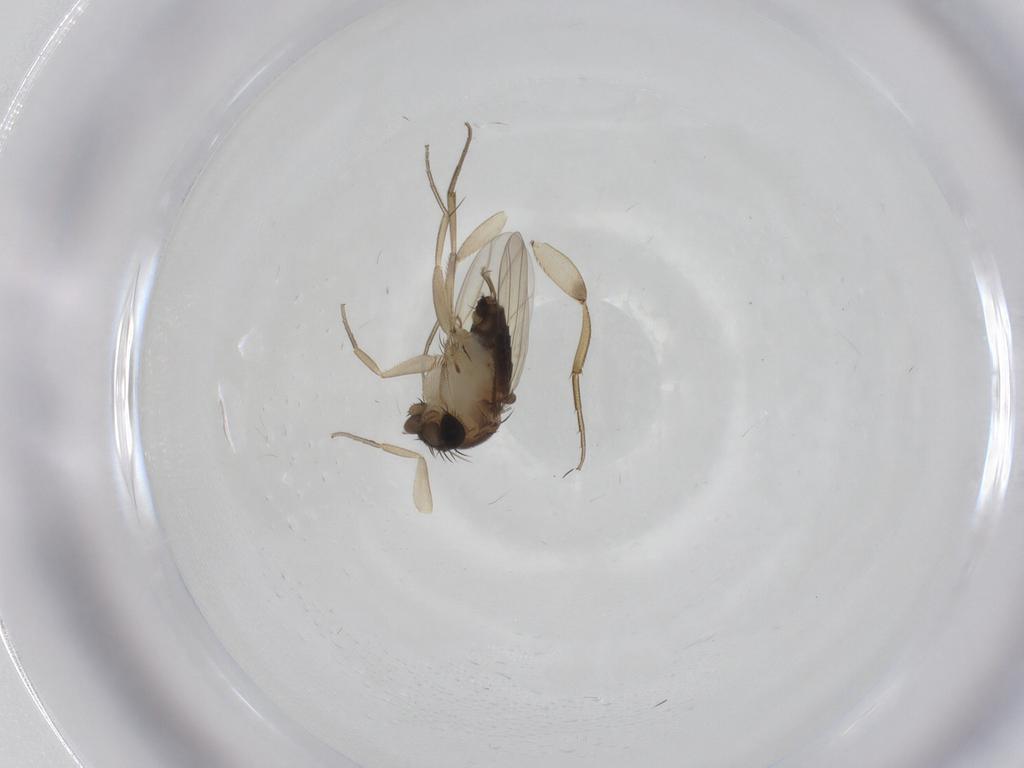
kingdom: Animalia
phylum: Arthropoda
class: Insecta
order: Diptera
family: Phoridae
